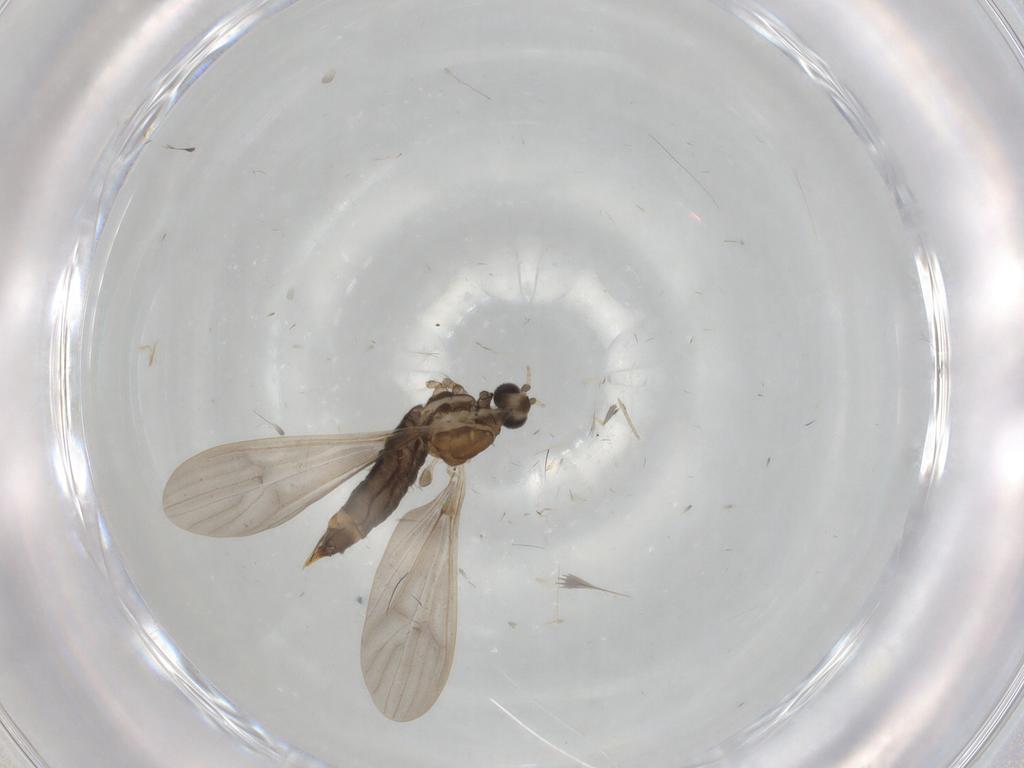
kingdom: Animalia
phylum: Arthropoda
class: Insecta
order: Diptera
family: Limoniidae
